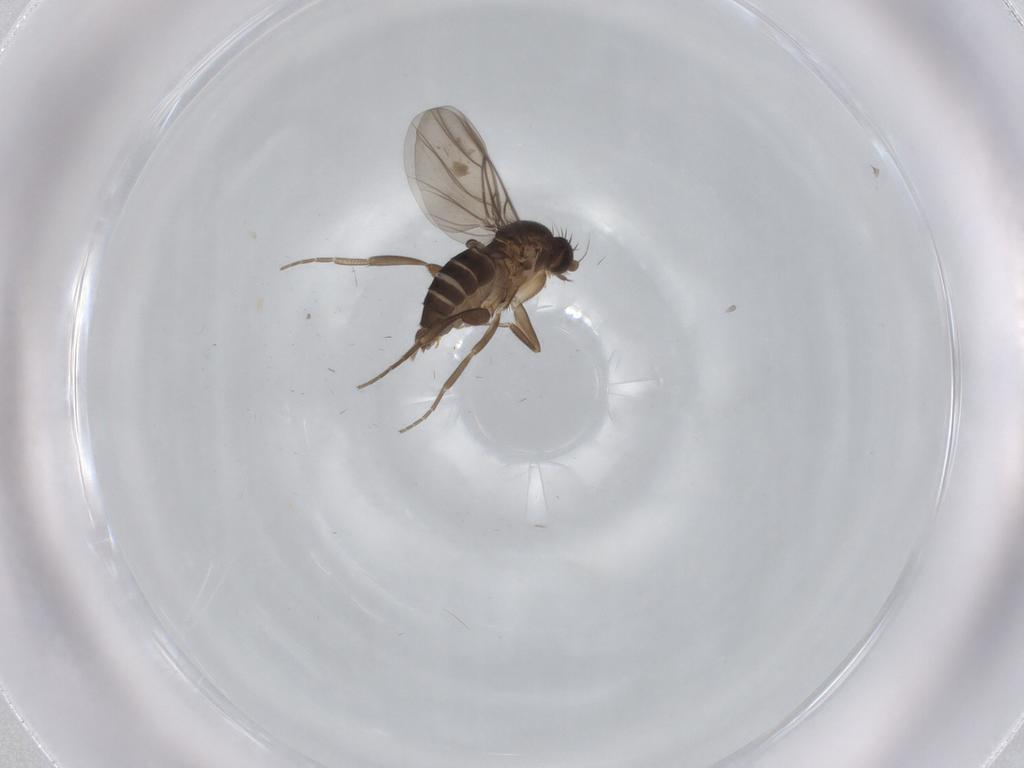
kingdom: Animalia
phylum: Arthropoda
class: Insecta
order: Diptera
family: Phoridae
